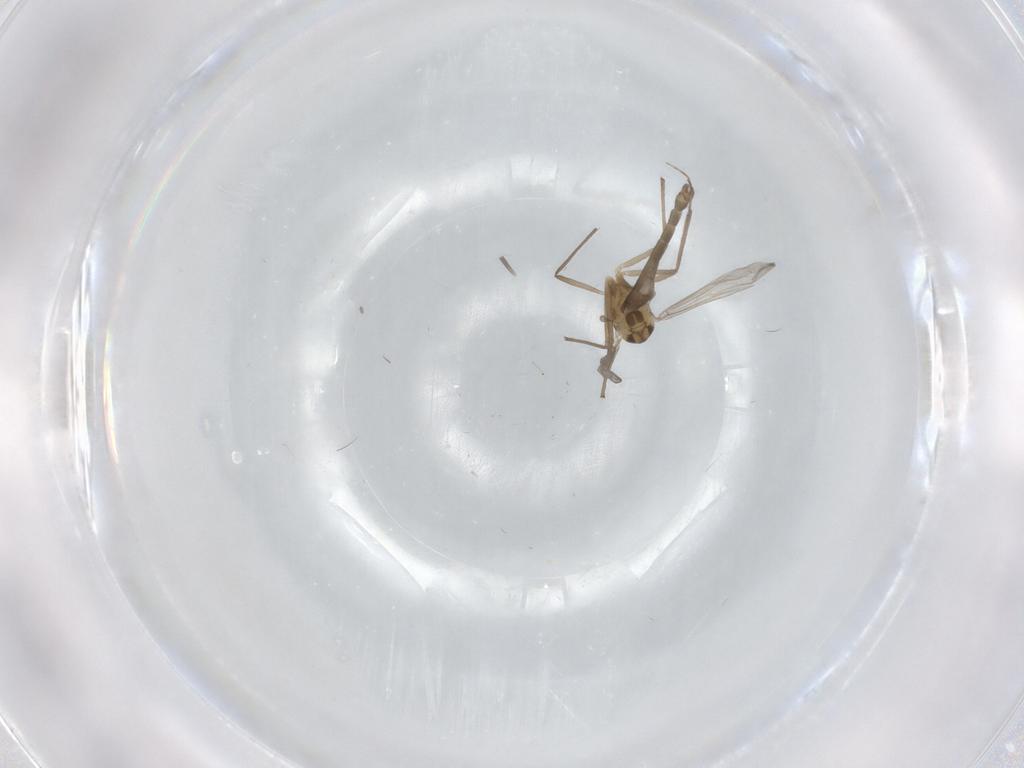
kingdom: Animalia
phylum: Arthropoda
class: Insecta
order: Diptera
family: Chironomidae
